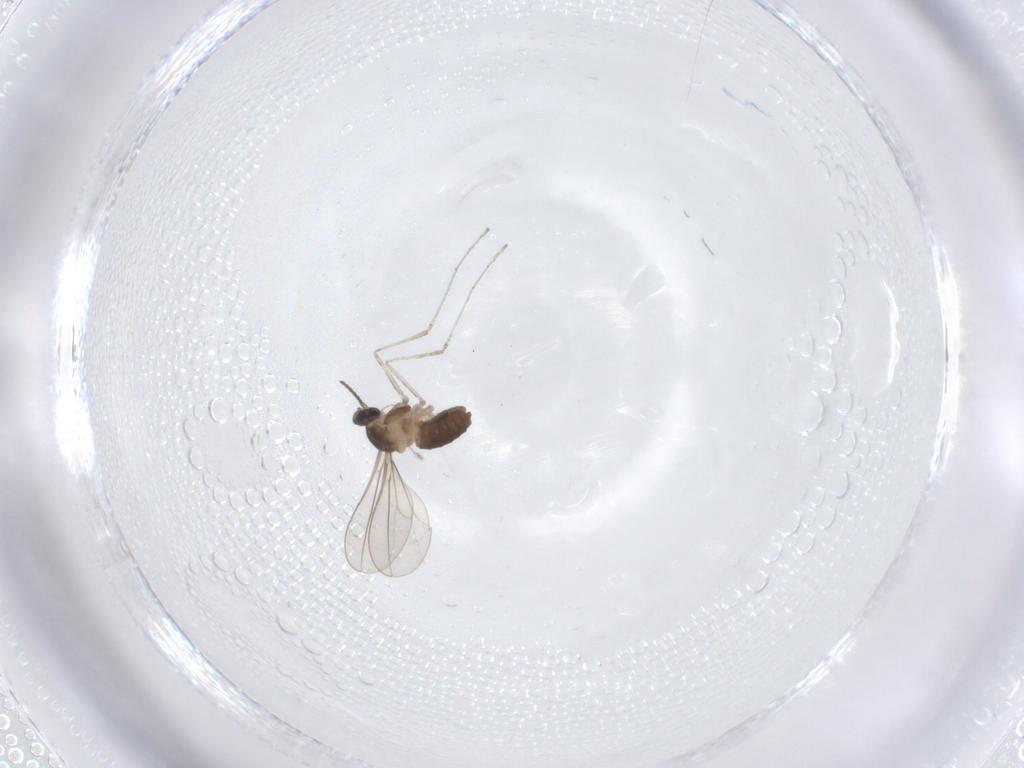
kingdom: Animalia
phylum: Arthropoda
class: Insecta
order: Diptera
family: Cecidomyiidae
